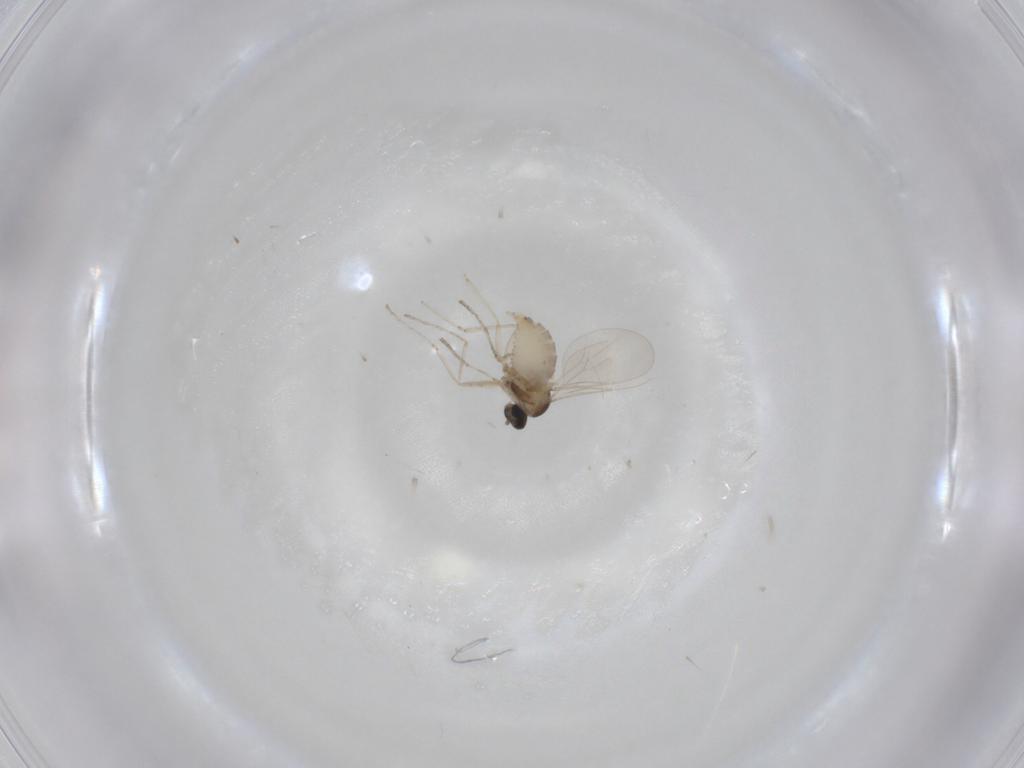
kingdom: Animalia
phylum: Arthropoda
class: Insecta
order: Diptera
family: Cecidomyiidae
